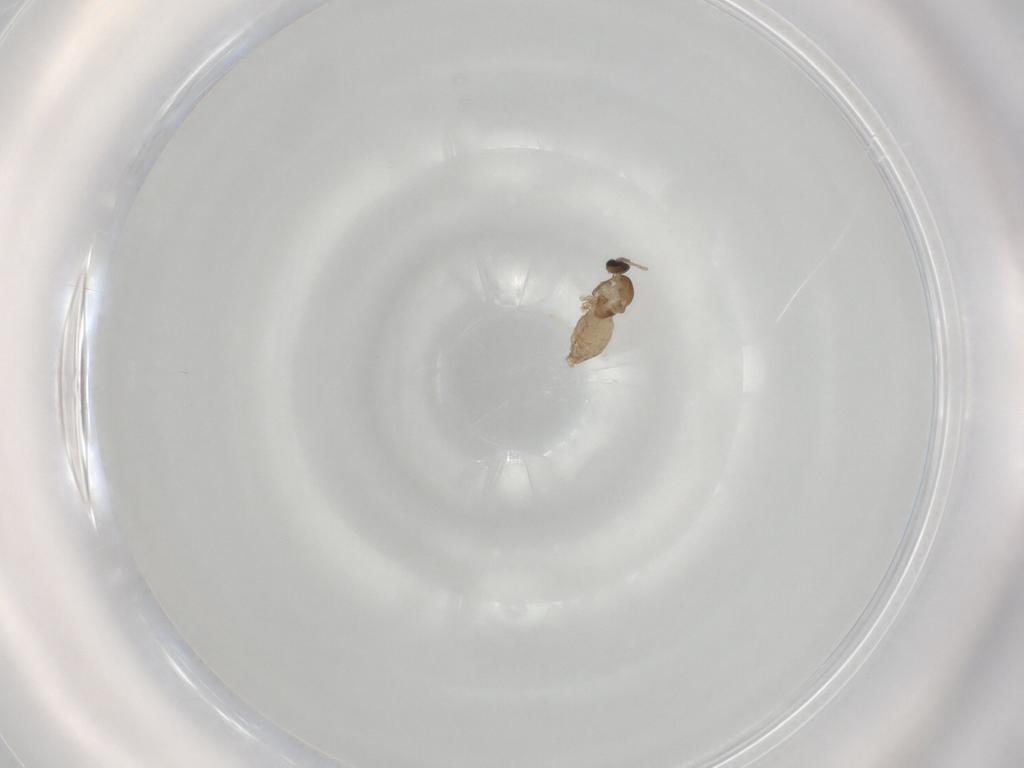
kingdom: Animalia
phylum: Arthropoda
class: Insecta
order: Diptera
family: Cecidomyiidae
